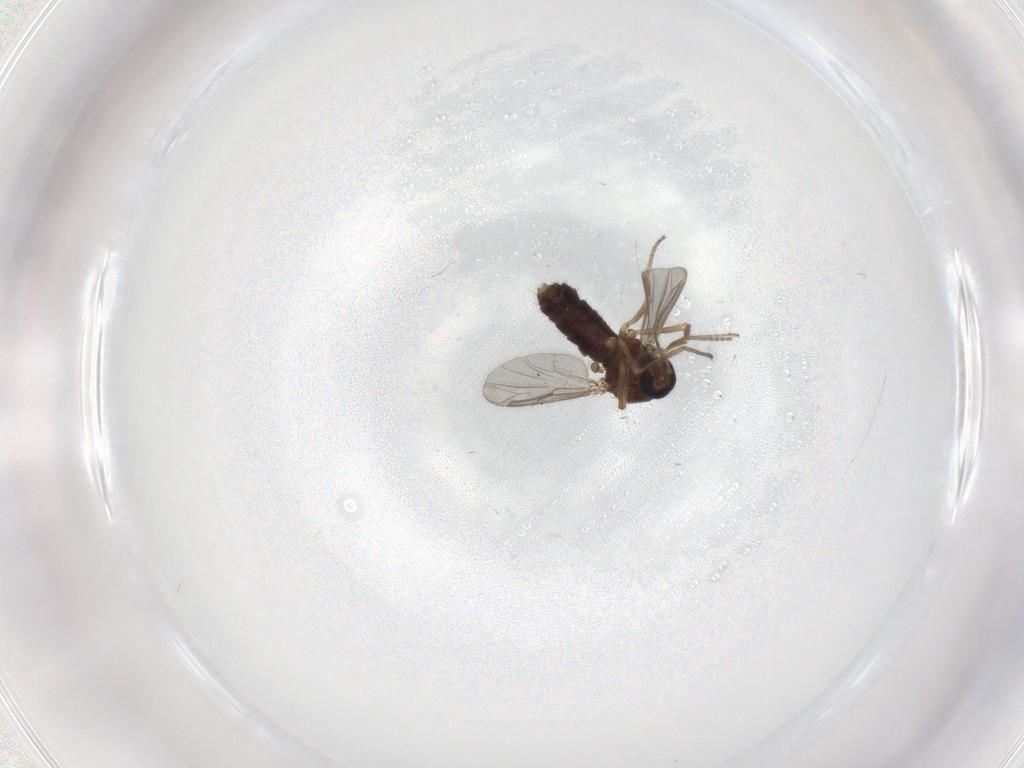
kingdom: Animalia
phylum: Arthropoda
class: Insecta
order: Diptera
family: Ceratopogonidae
